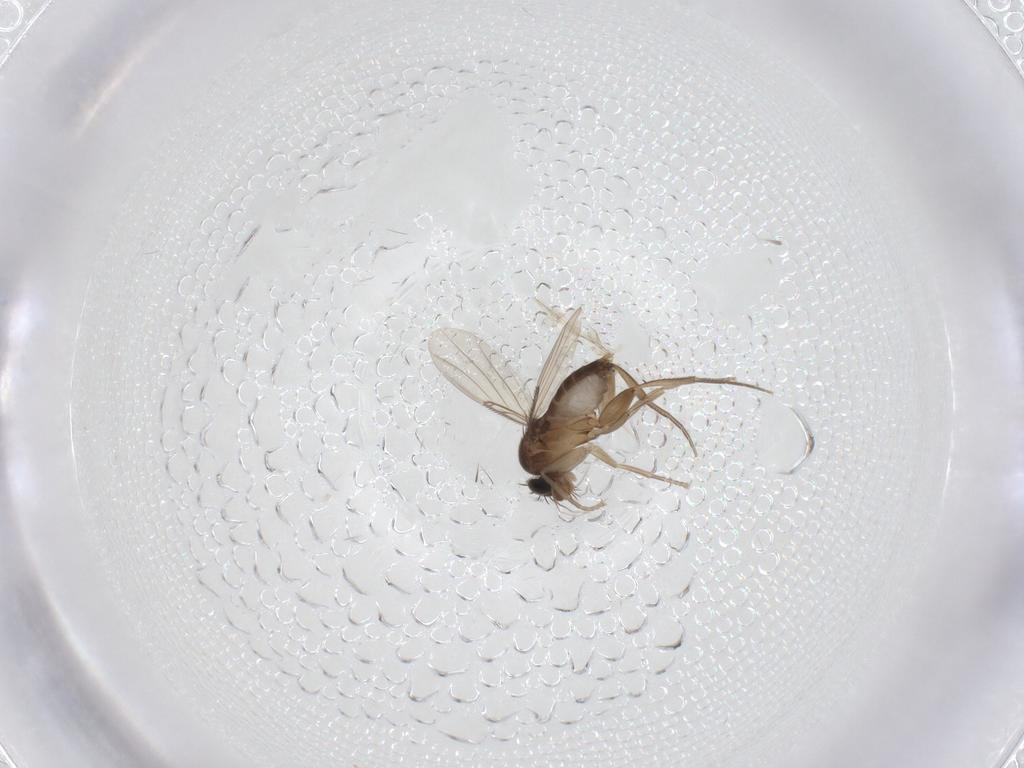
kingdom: Animalia
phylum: Arthropoda
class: Insecta
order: Diptera
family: Phoridae
